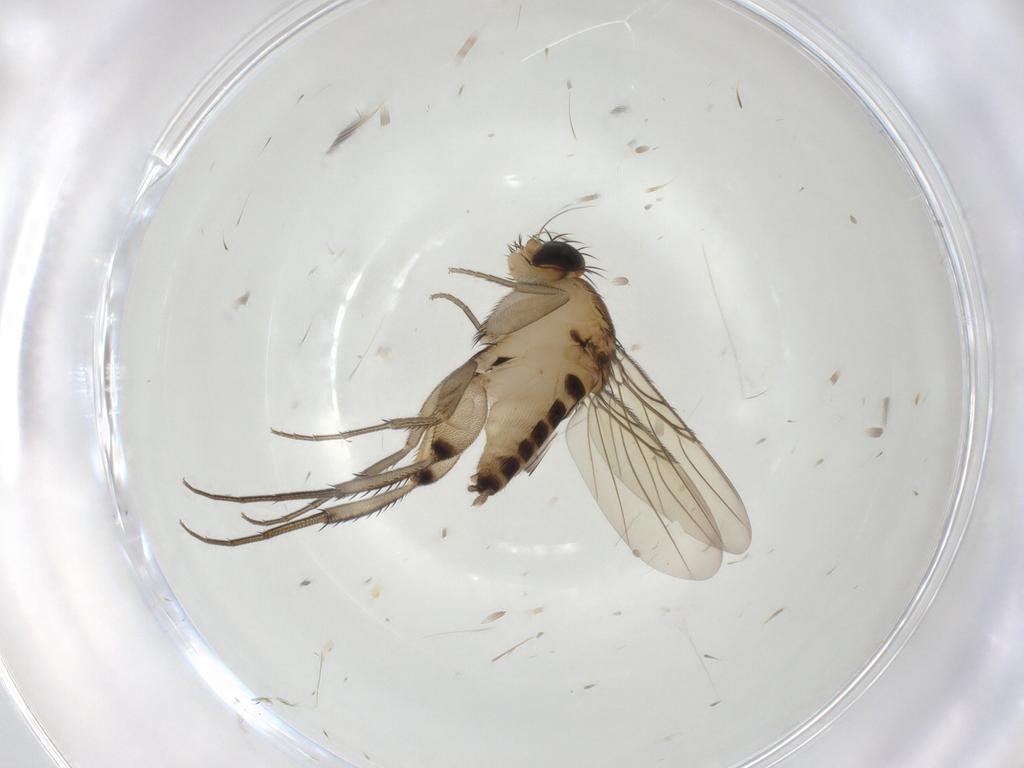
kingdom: Animalia
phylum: Arthropoda
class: Insecta
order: Diptera
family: Phoridae
